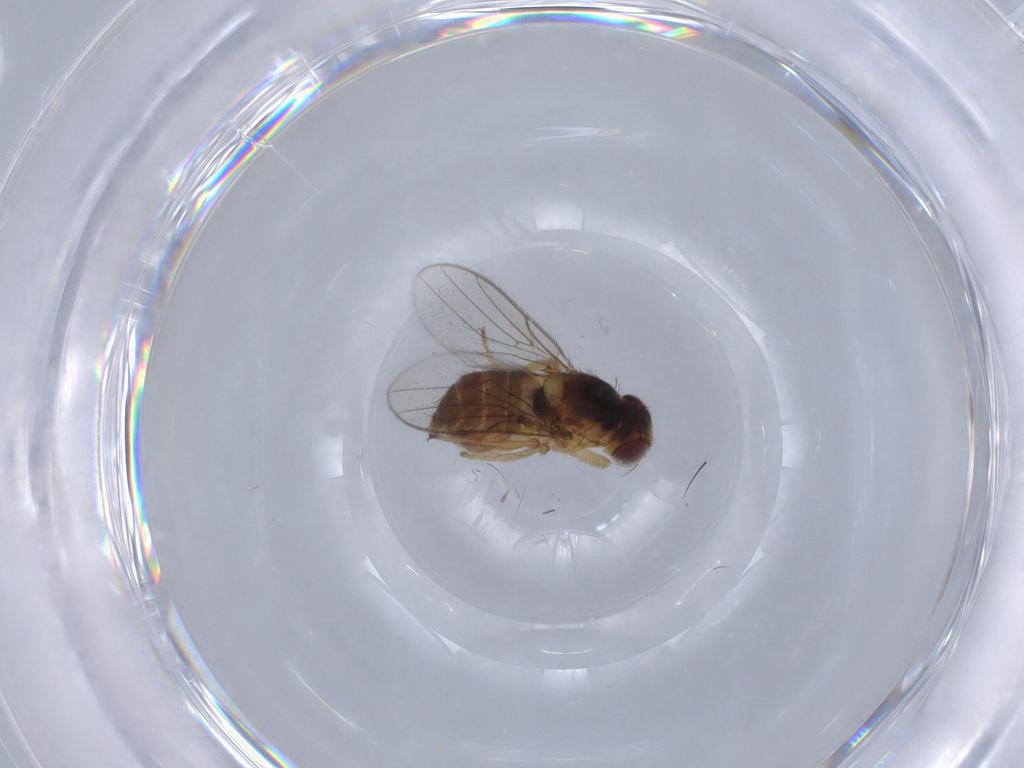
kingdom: Animalia
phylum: Arthropoda
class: Insecta
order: Diptera
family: Chloropidae
